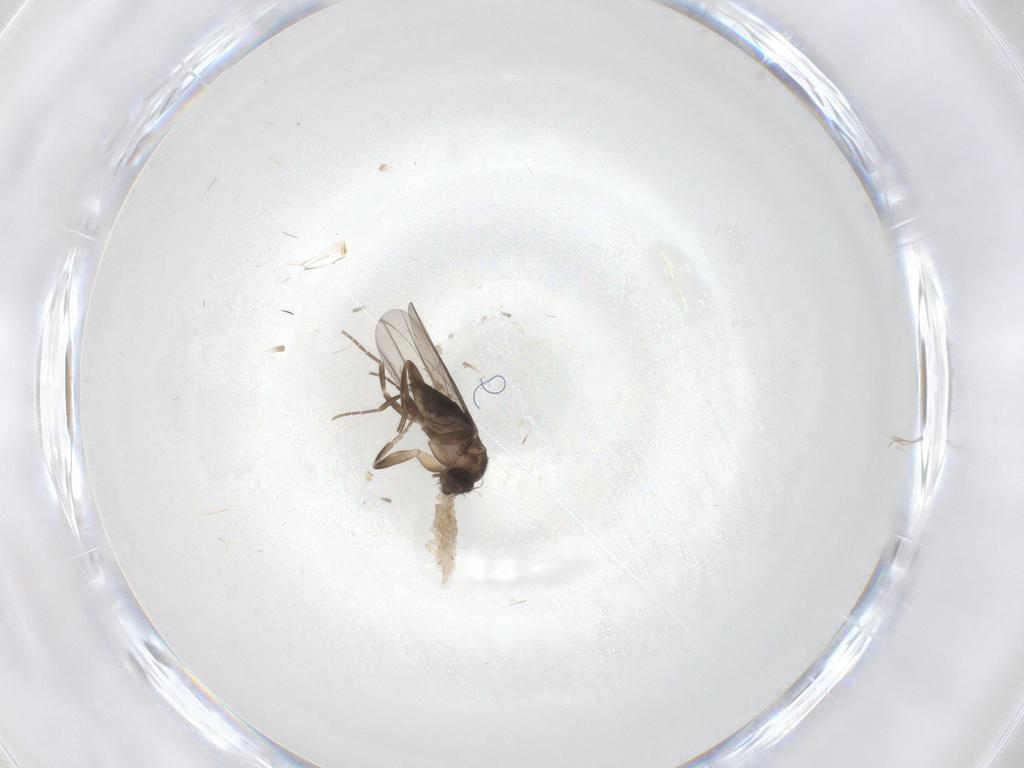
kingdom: Animalia
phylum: Arthropoda
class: Insecta
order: Diptera
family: Phoridae
